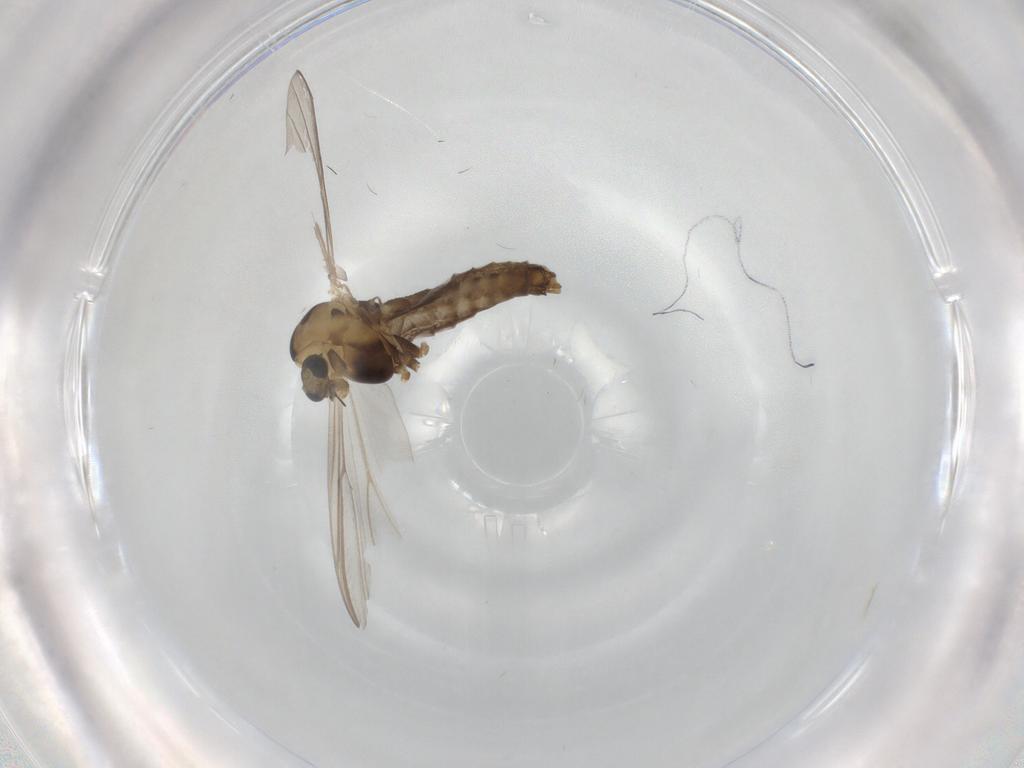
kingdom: Animalia
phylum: Arthropoda
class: Insecta
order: Diptera
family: Chironomidae
